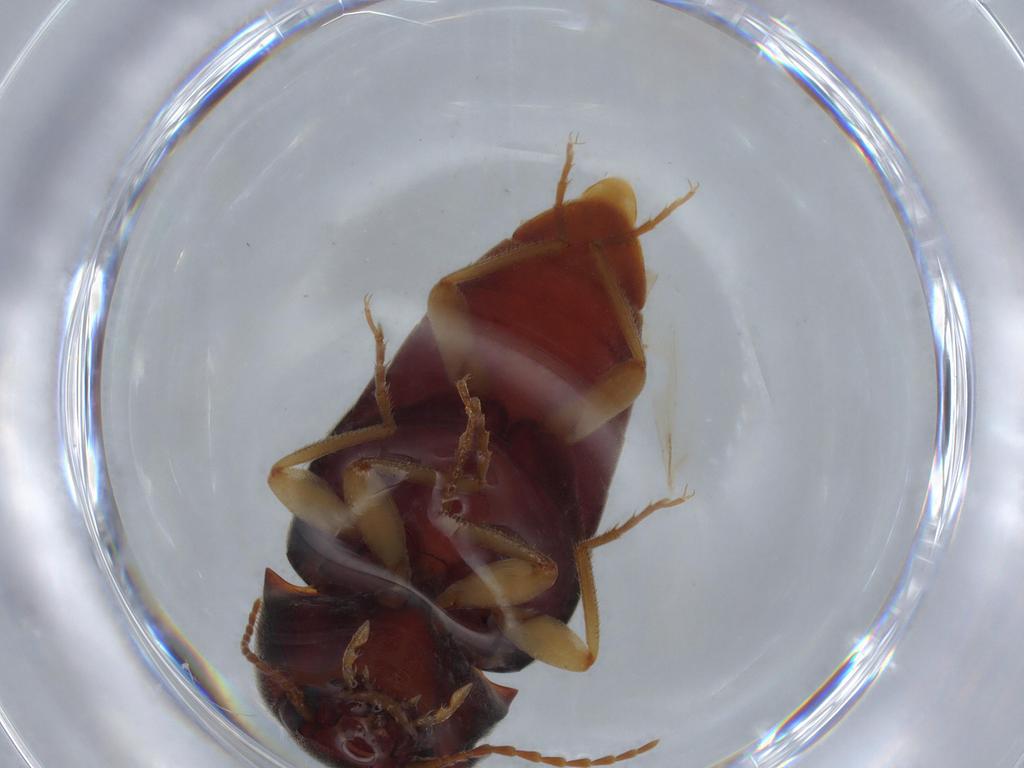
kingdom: Animalia
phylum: Arthropoda
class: Insecta
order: Coleoptera
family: Elateridae
